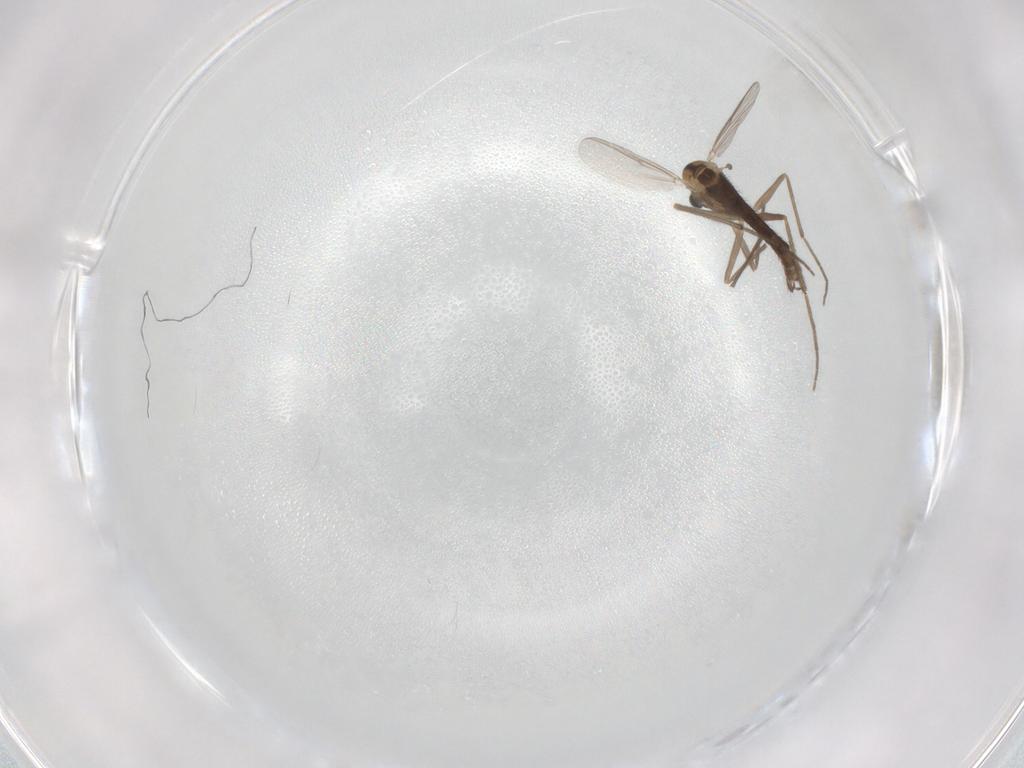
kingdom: Animalia
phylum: Arthropoda
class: Insecta
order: Diptera
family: Chironomidae
